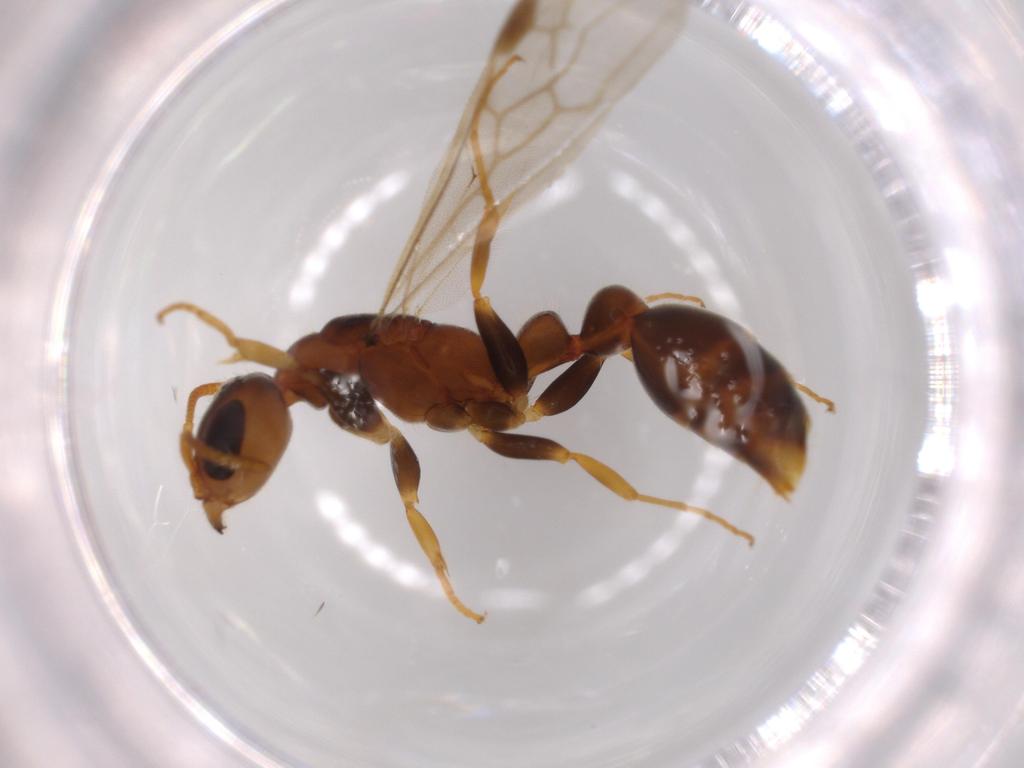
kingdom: Animalia
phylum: Arthropoda
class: Insecta
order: Hymenoptera
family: Formicidae
